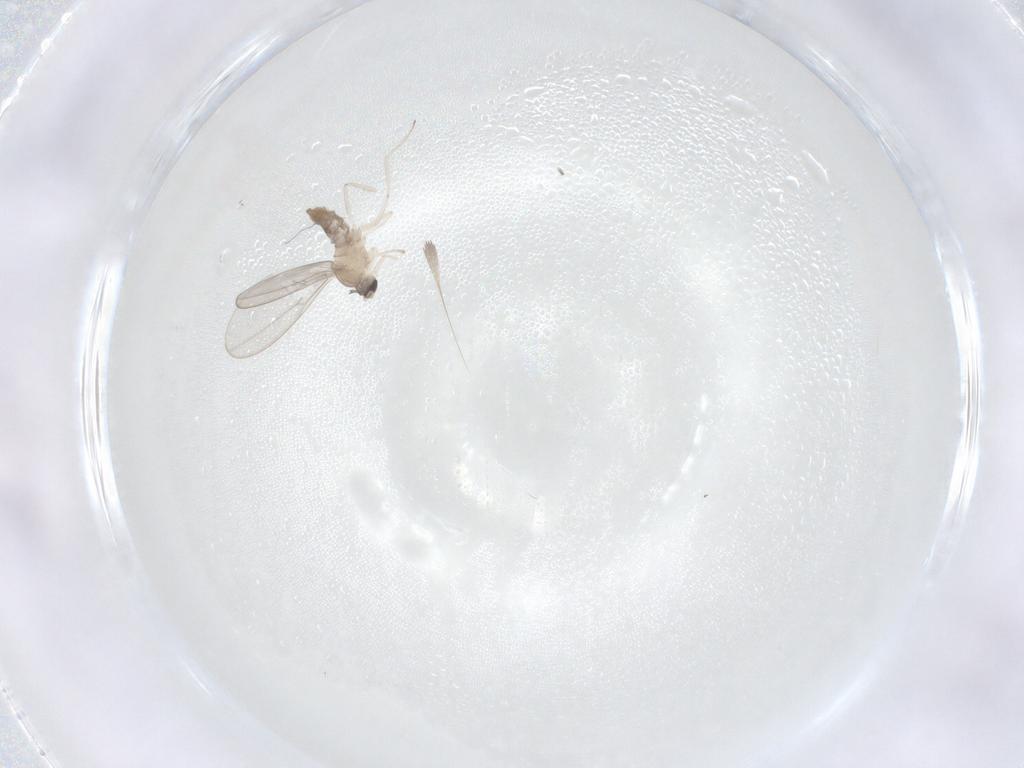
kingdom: Animalia
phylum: Arthropoda
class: Insecta
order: Diptera
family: Cecidomyiidae
